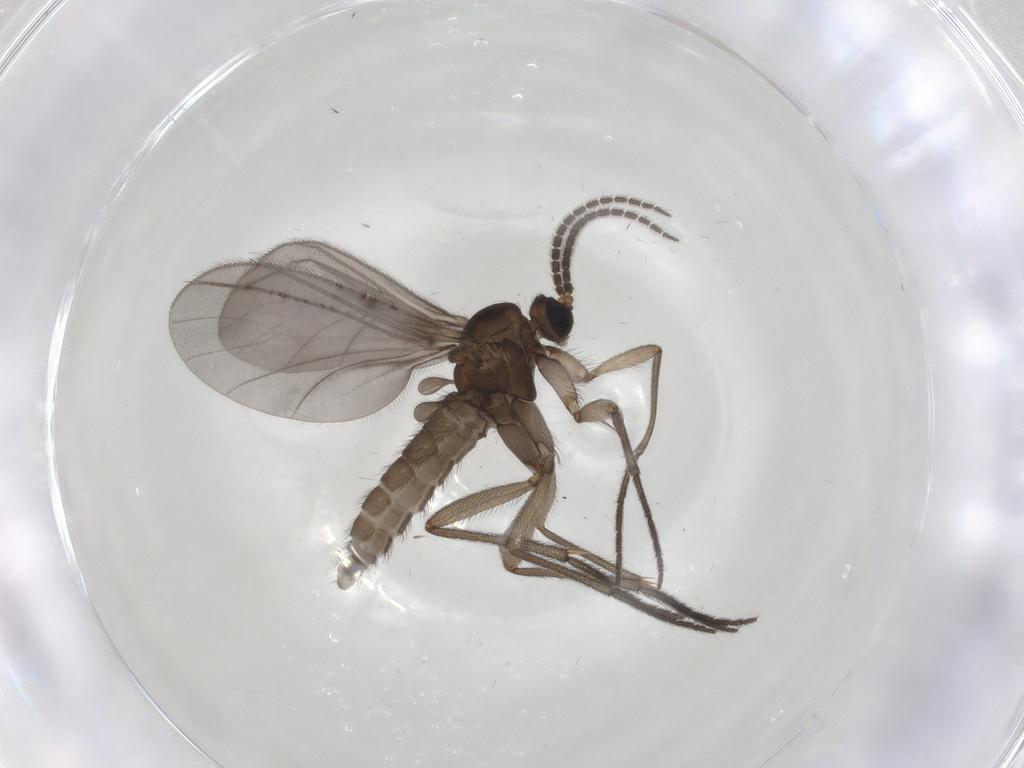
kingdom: Animalia
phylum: Arthropoda
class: Insecta
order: Diptera
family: Sciaridae
